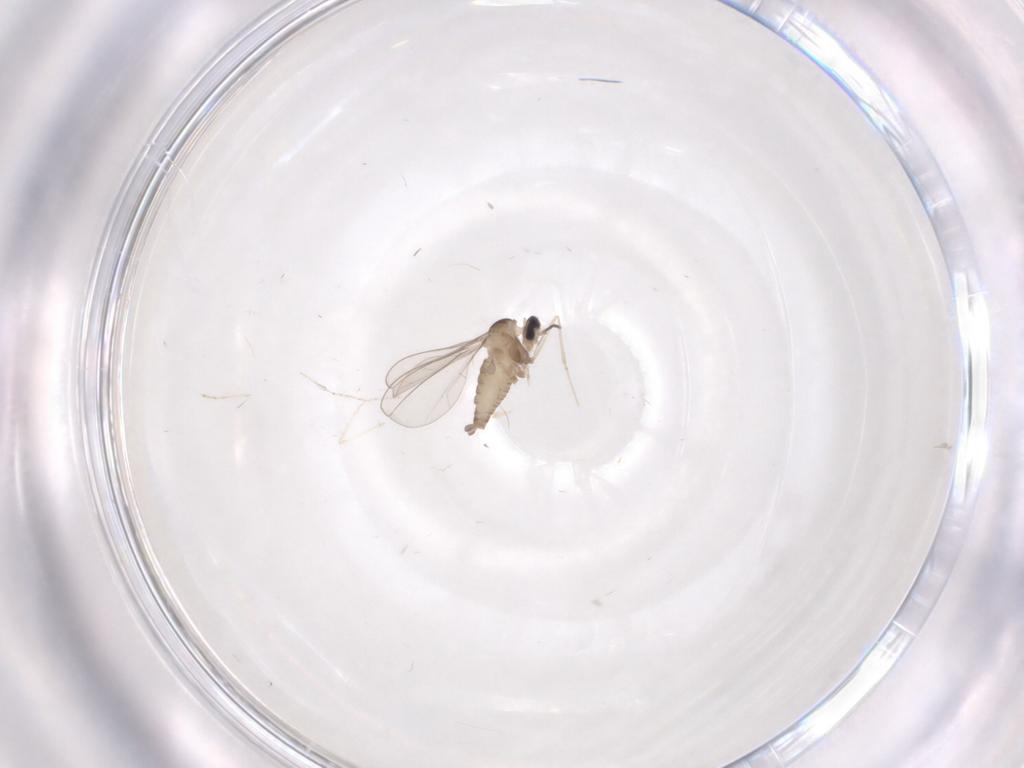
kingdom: Animalia
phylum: Arthropoda
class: Insecta
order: Diptera
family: Cecidomyiidae
